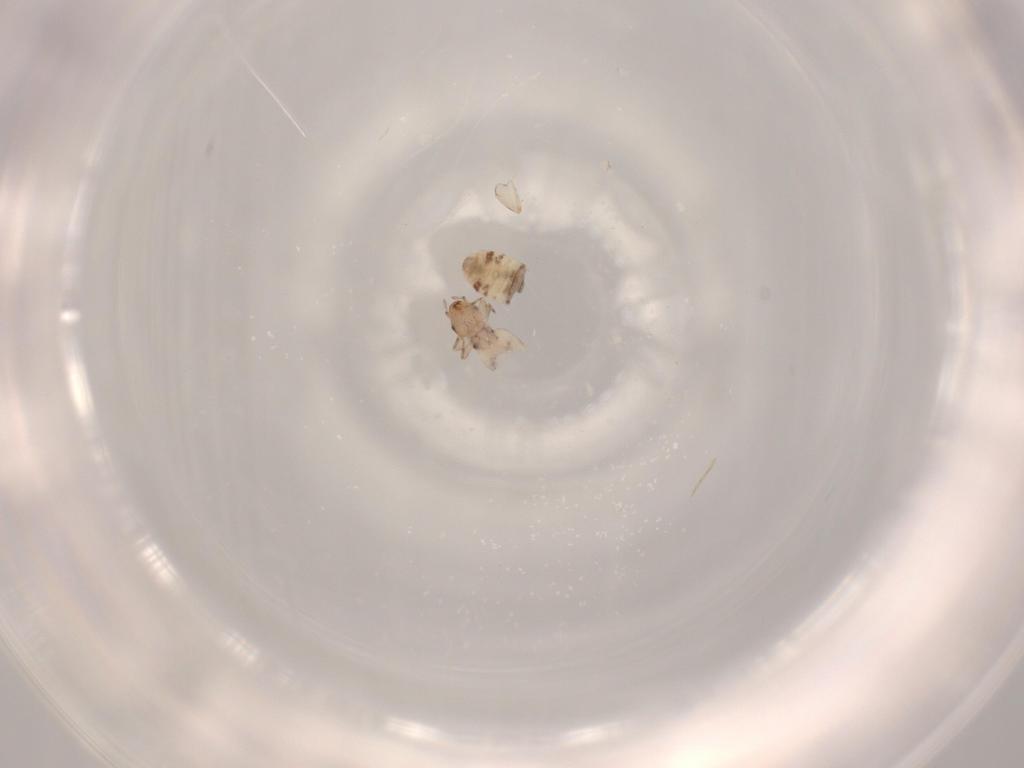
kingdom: Animalia
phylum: Arthropoda
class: Insecta
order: Psocodea
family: Liposcelididae
